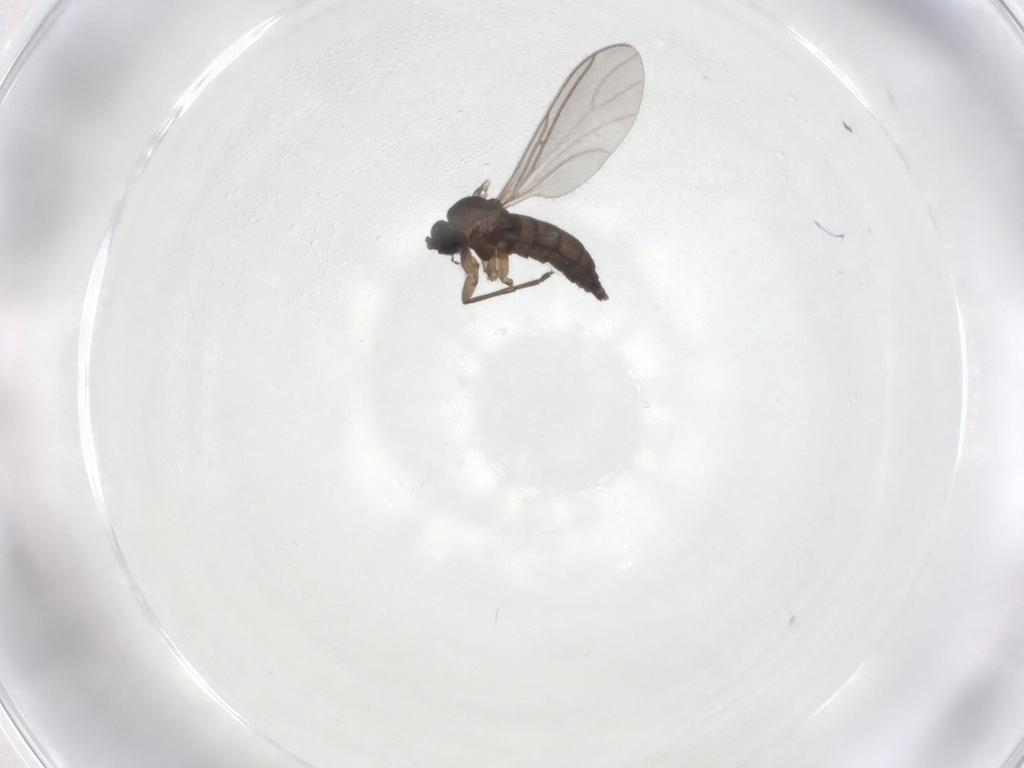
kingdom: Animalia
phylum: Arthropoda
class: Insecta
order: Diptera
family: Sciaridae
